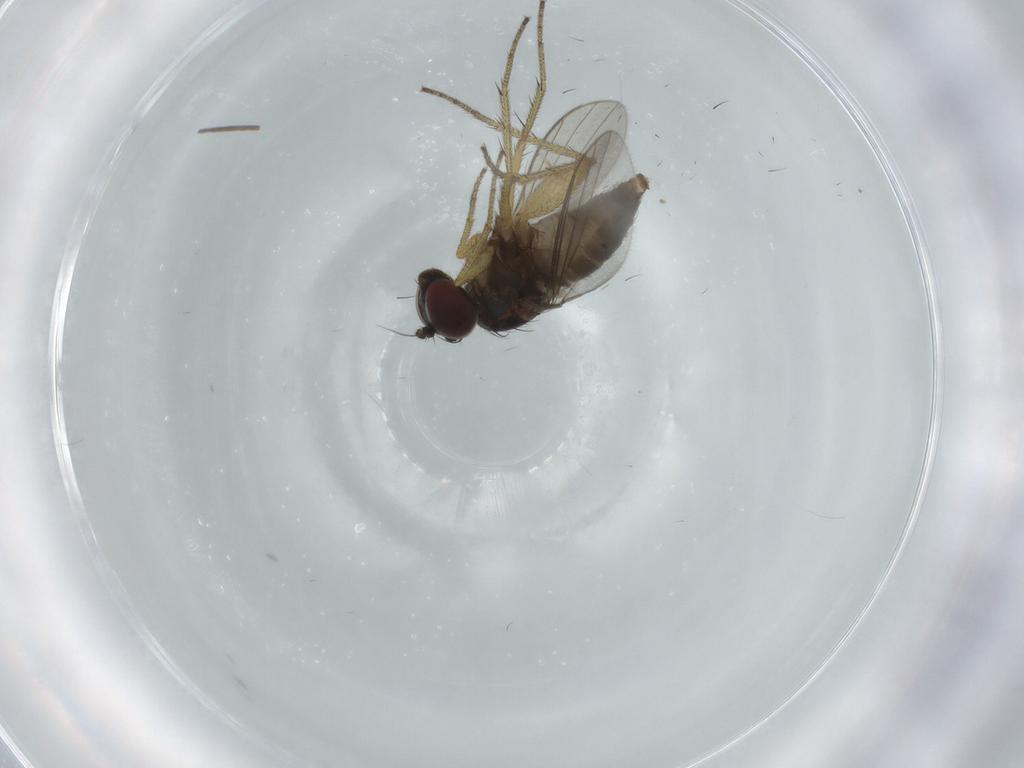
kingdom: Animalia
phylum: Arthropoda
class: Insecta
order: Diptera
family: Dolichopodidae
